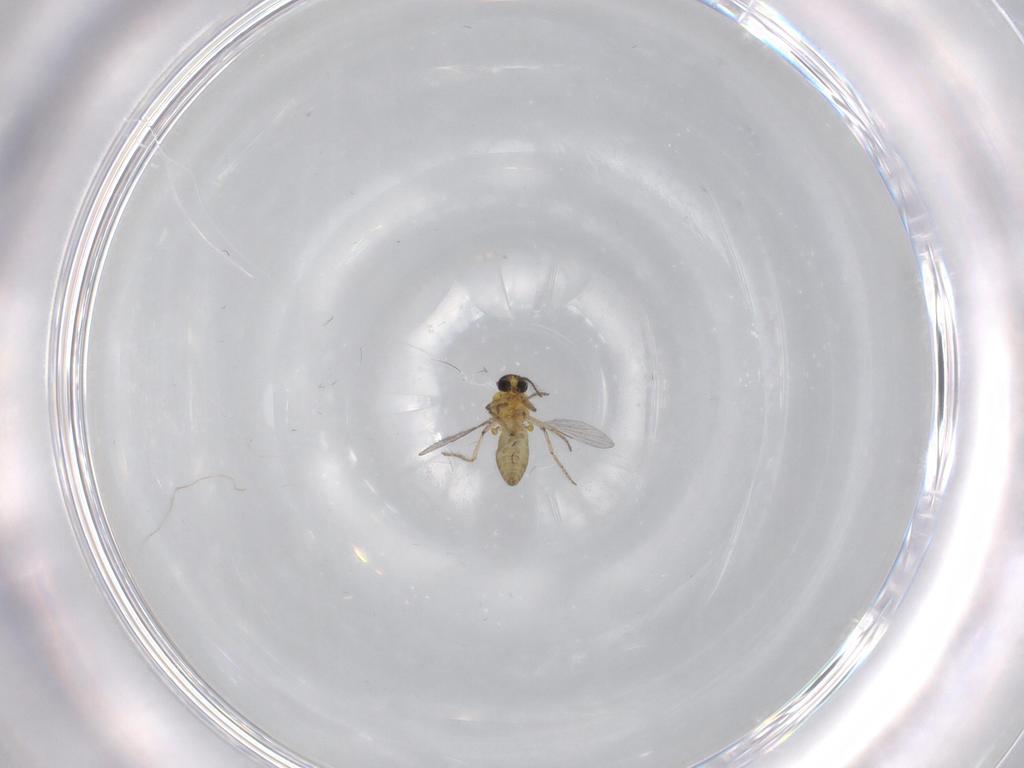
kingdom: Animalia
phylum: Arthropoda
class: Insecta
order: Diptera
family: Ceratopogonidae
